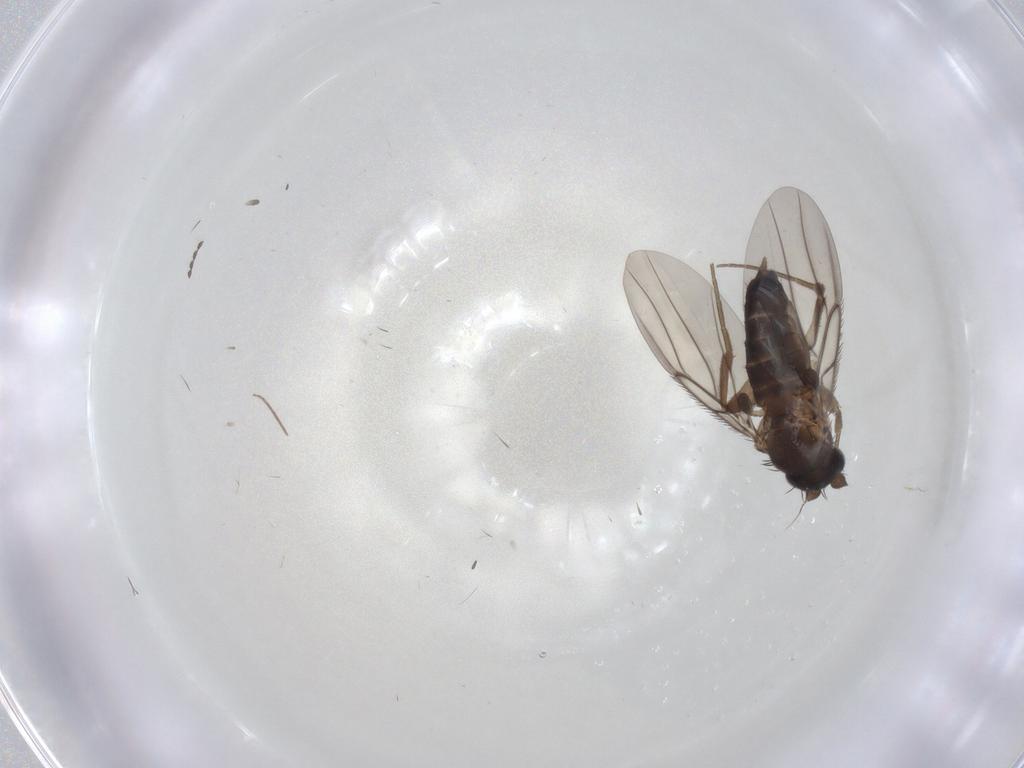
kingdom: Animalia
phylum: Arthropoda
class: Insecta
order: Diptera
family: Phoridae
